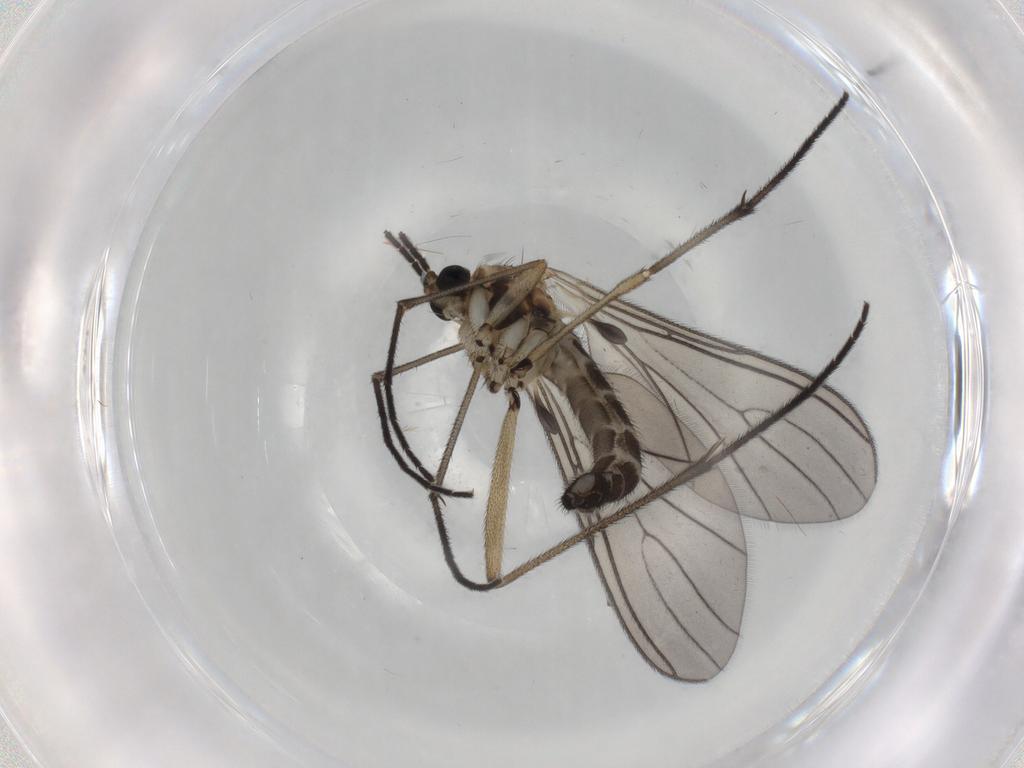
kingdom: Animalia
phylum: Arthropoda
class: Insecta
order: Diptera
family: Sciaridae
